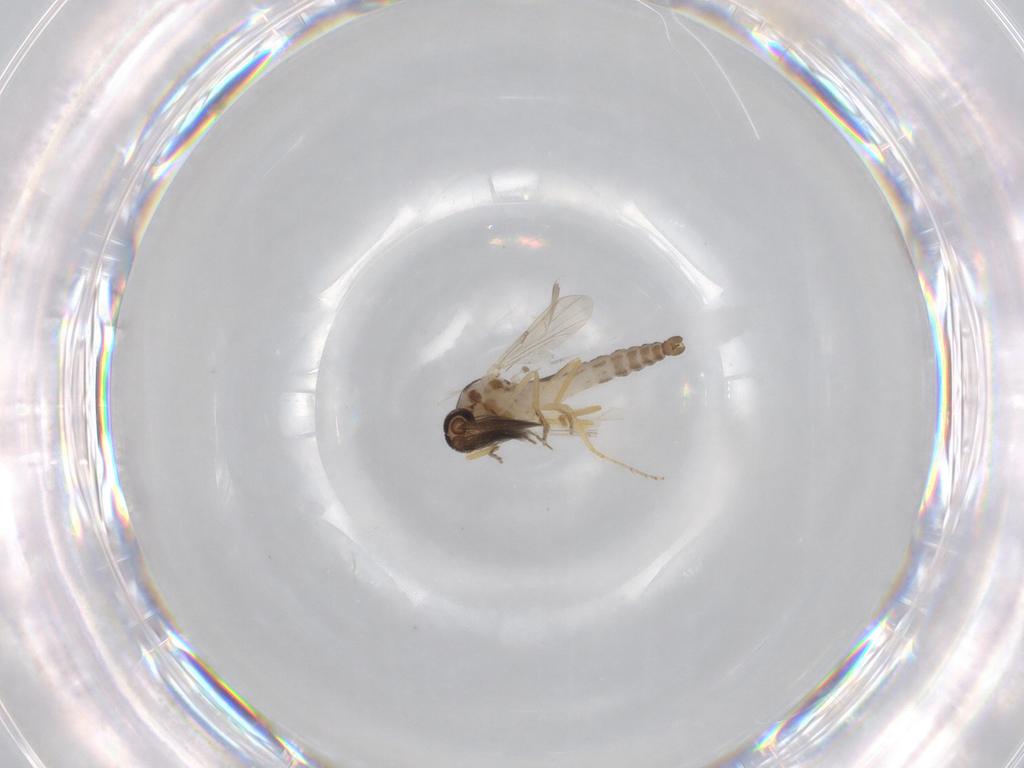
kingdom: Animalia
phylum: Arthropoda
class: Insecta
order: Diptera
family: Ceratopogonidae
